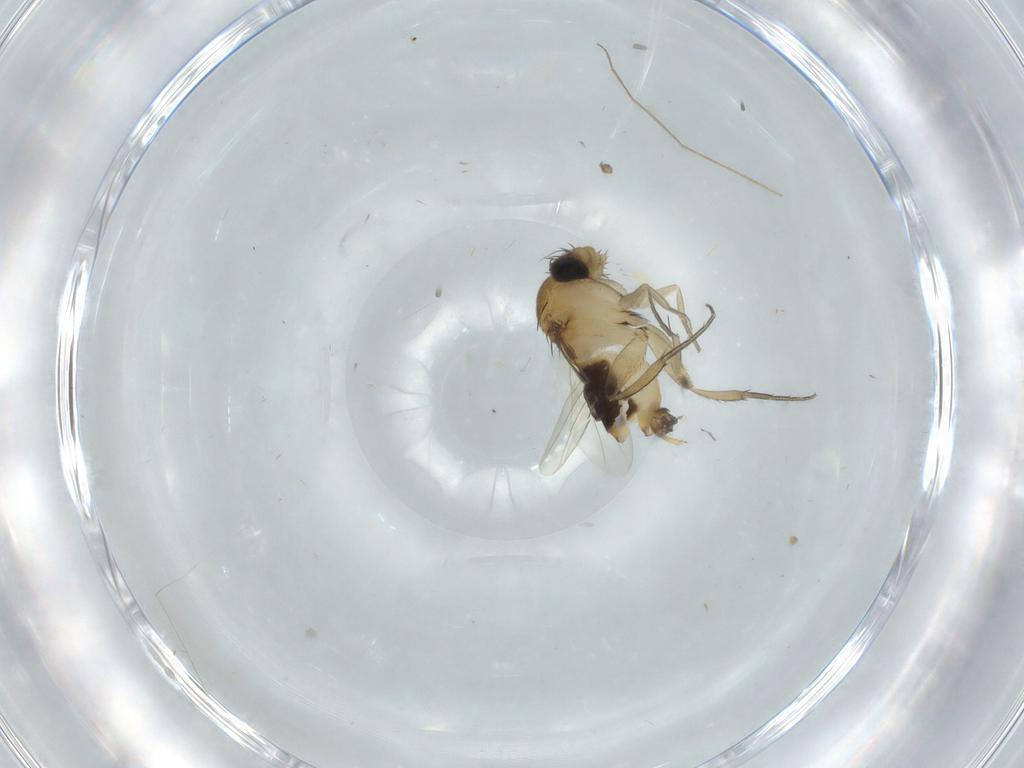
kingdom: Animalia
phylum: Arthropoda
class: Insecta
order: Diptera
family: Phoridae
